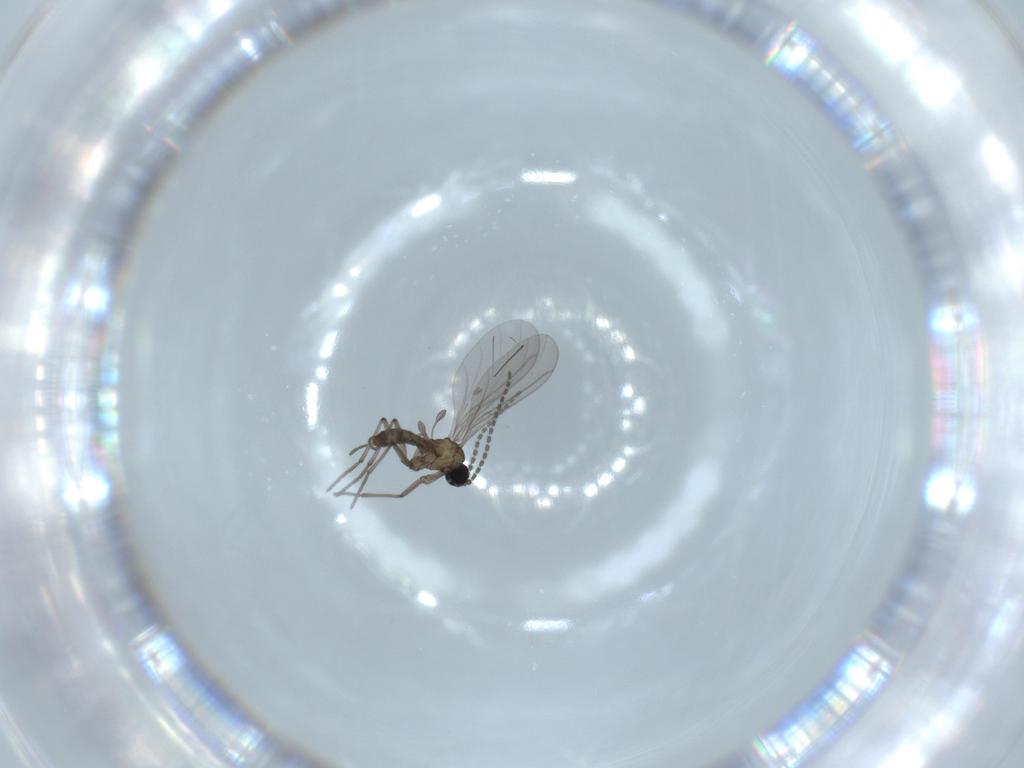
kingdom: Animalia
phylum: Arthropoda
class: Insecta
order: Diptera
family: Cecidomyiidae
